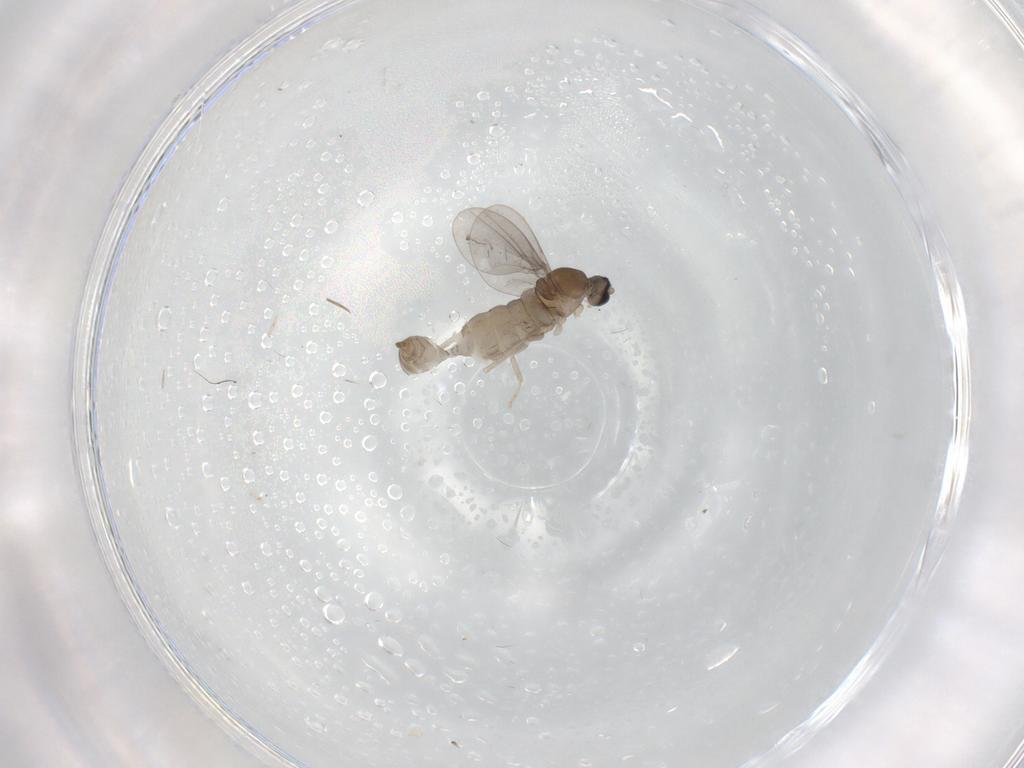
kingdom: Animalia
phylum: Arthropoda
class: Insecta
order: Diptera
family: Cecidomyiidae
